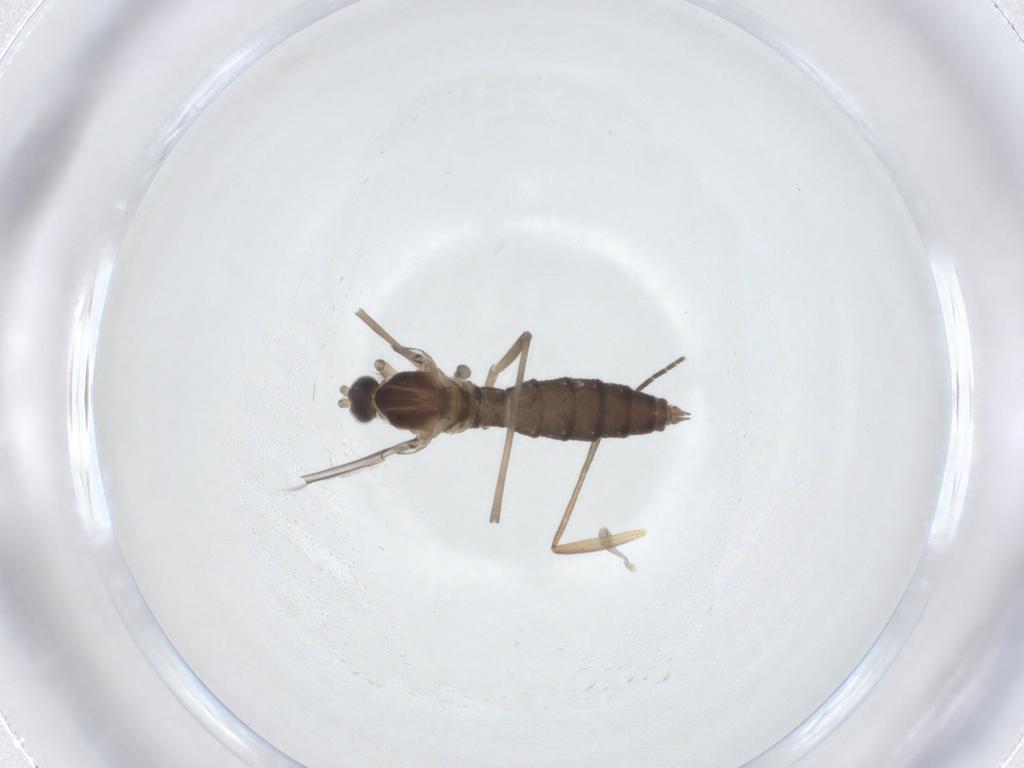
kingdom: Animalia
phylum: Arthropoda
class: Insecta
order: Diptera
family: Cecidomyiidae
